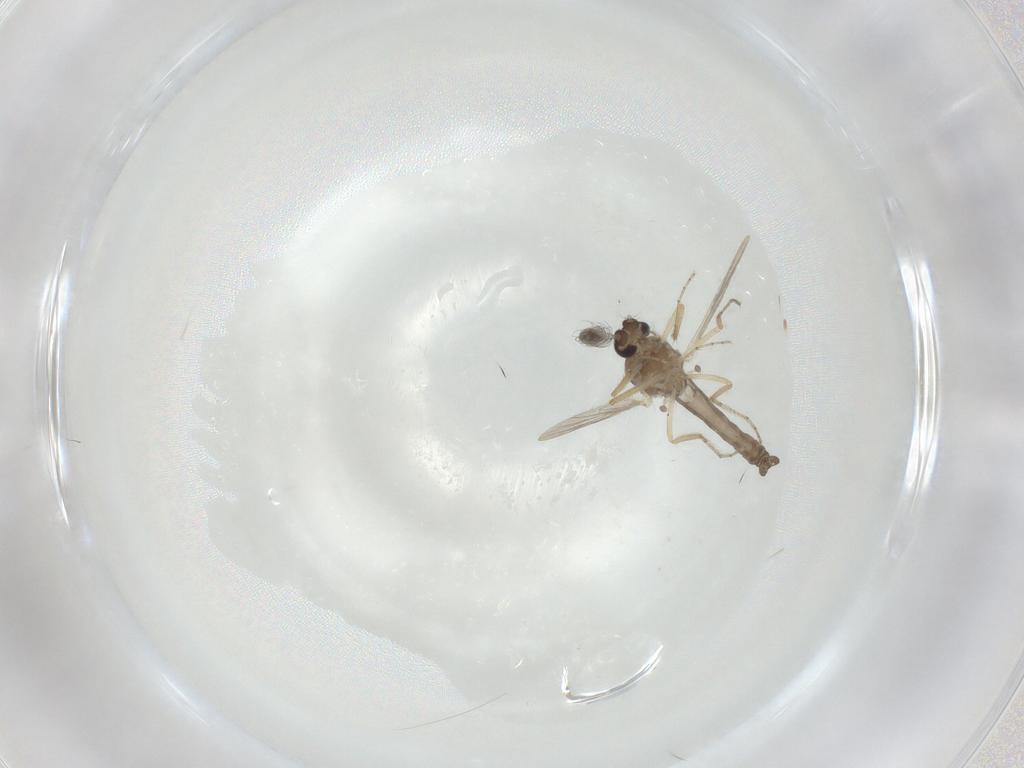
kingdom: Animalia
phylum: Arthropoda
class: Insecta
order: Diptera
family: Ceratopogonidae
